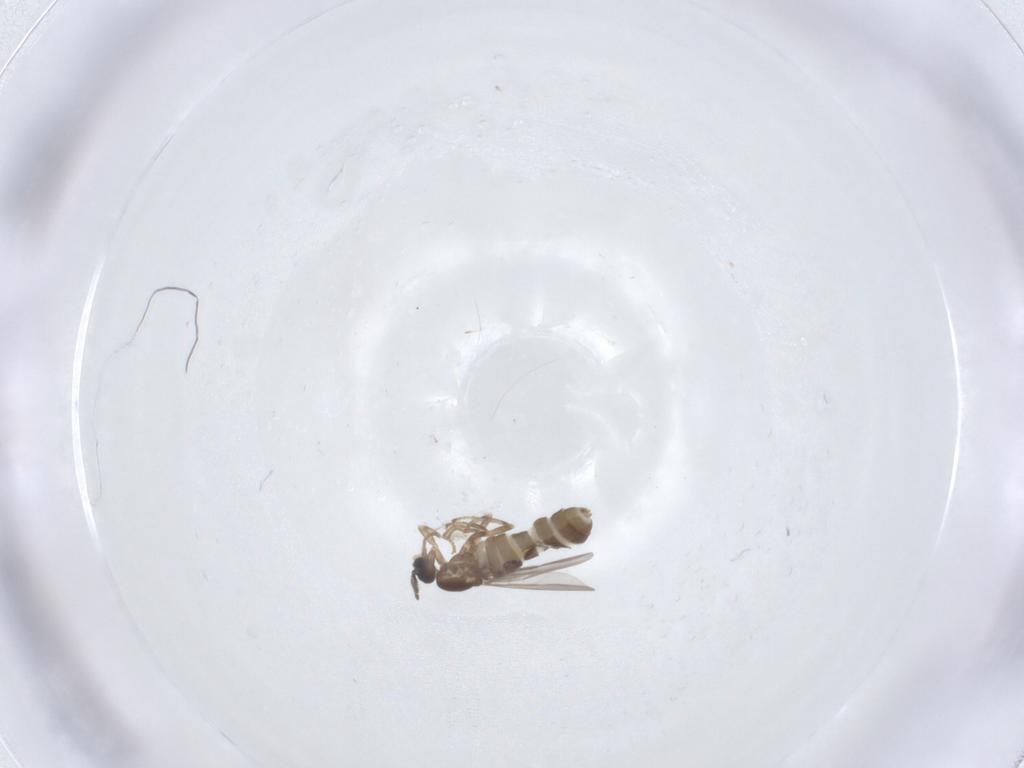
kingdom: Animalia
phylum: Arthropoda
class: Insecta
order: Diptera
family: Scatopsidae
